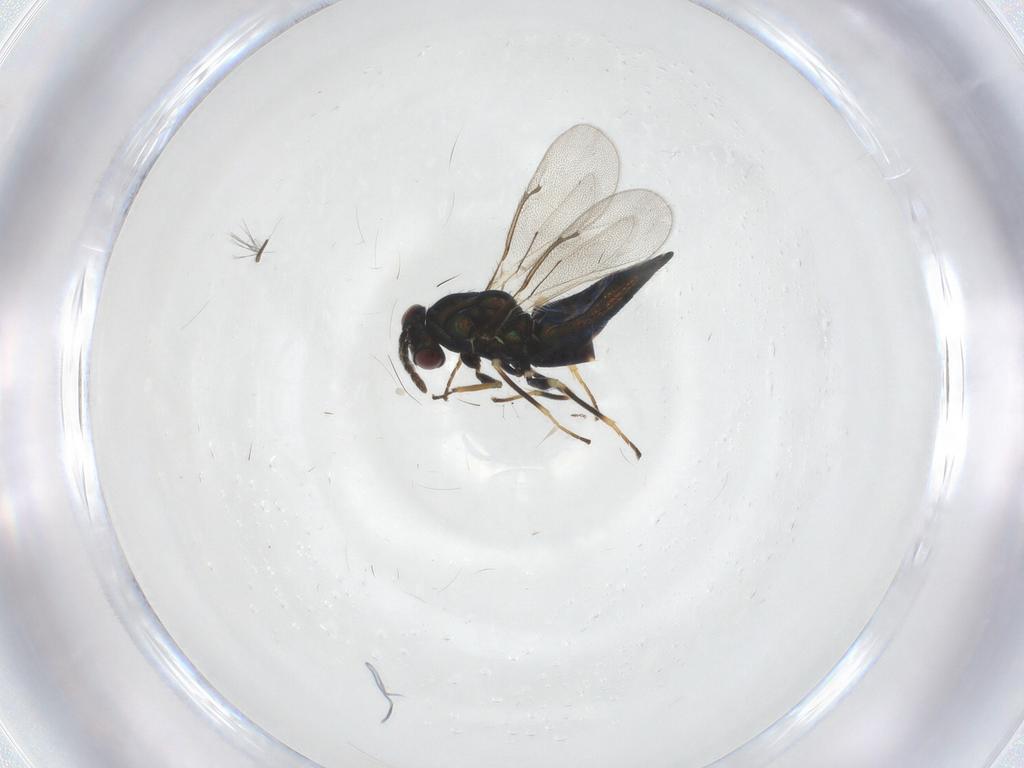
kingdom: Animalia
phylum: Arthropoda
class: Insecta
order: Hymenoptera
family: Eulophidae
